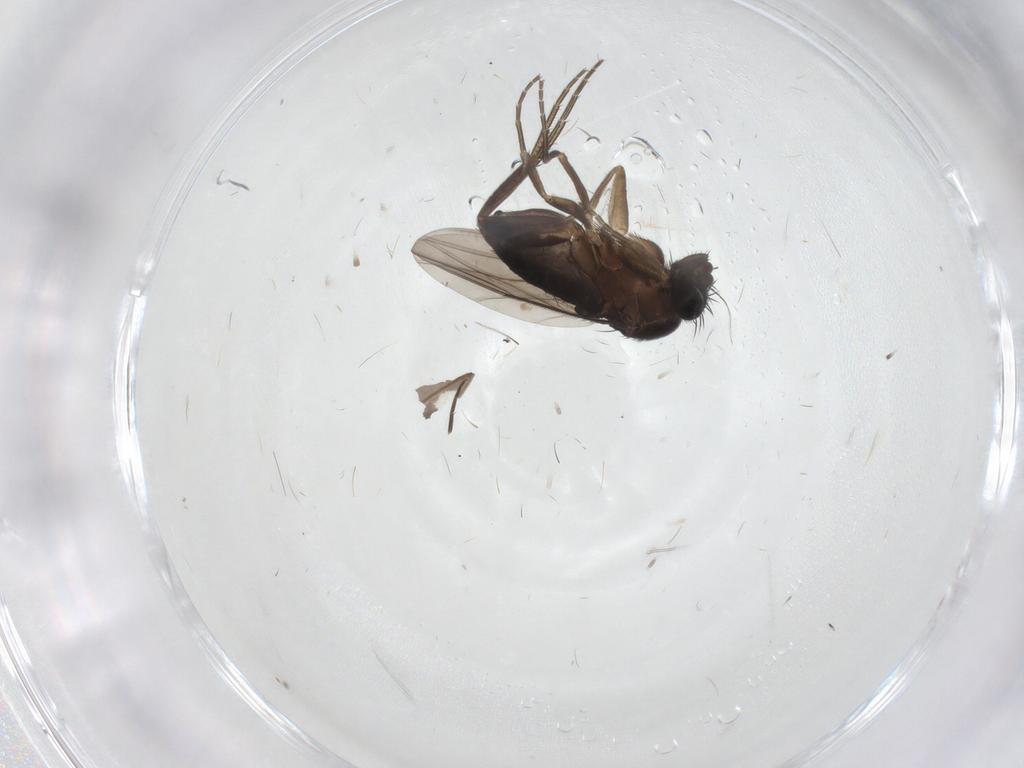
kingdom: Animalia
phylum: Arthropoda
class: Insecta
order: Diptera
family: Phoridae
